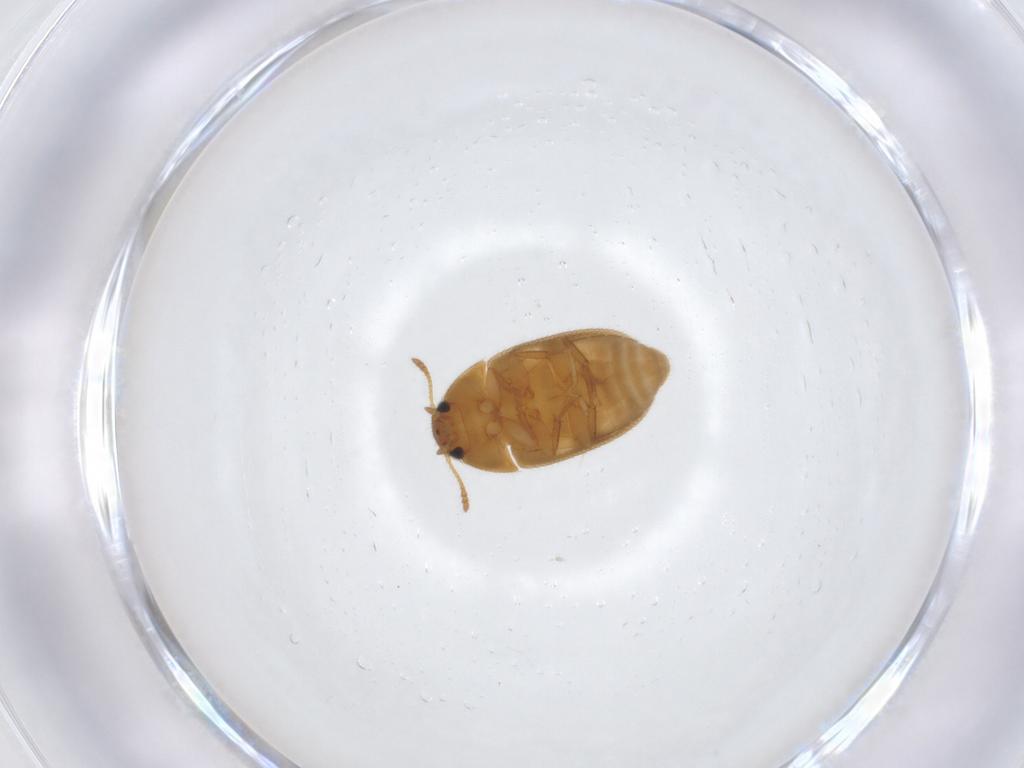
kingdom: Animalia
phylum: Arthropoda
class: Insecta
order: Coleoptera
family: Mycetophagidae
